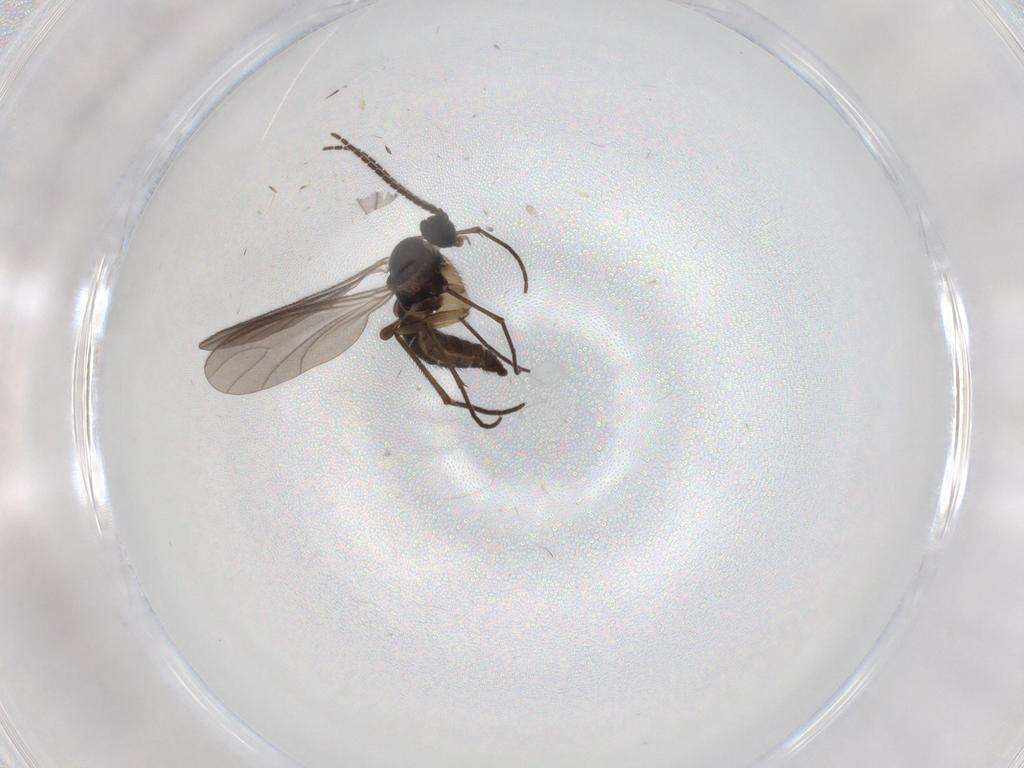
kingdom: Animalia
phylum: Arthropoda
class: Insecta
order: Diptera
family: Sciaridae
